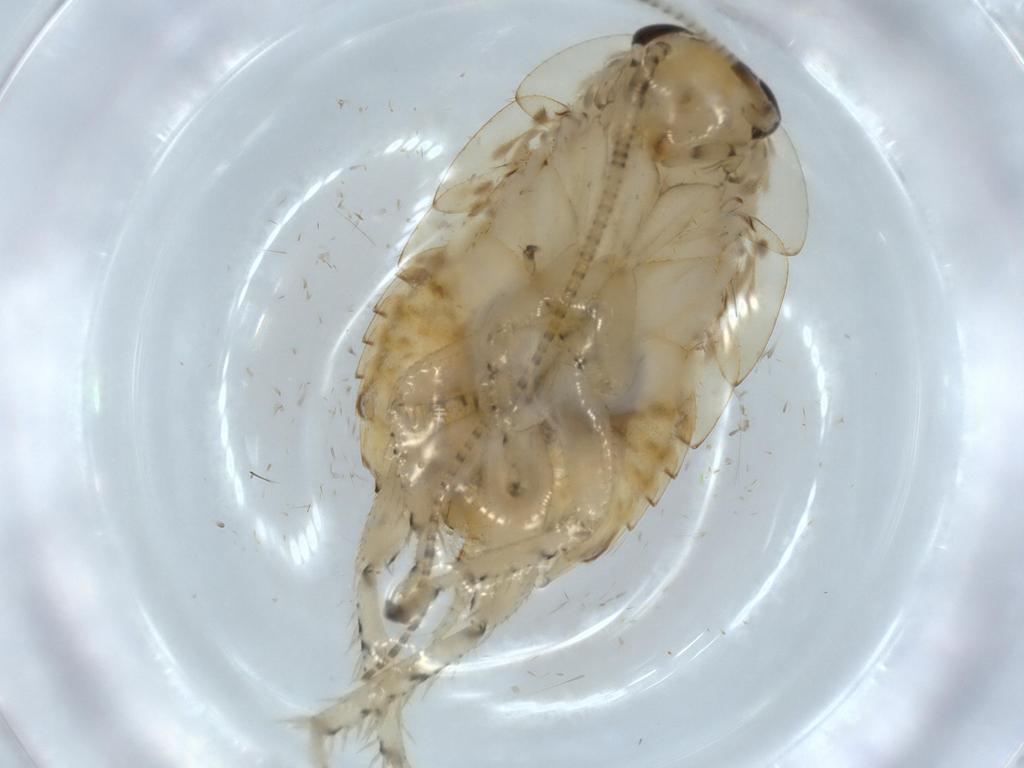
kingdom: Animalia
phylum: Arthropoda
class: Insecta
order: Blattodea
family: Ectobiidae
